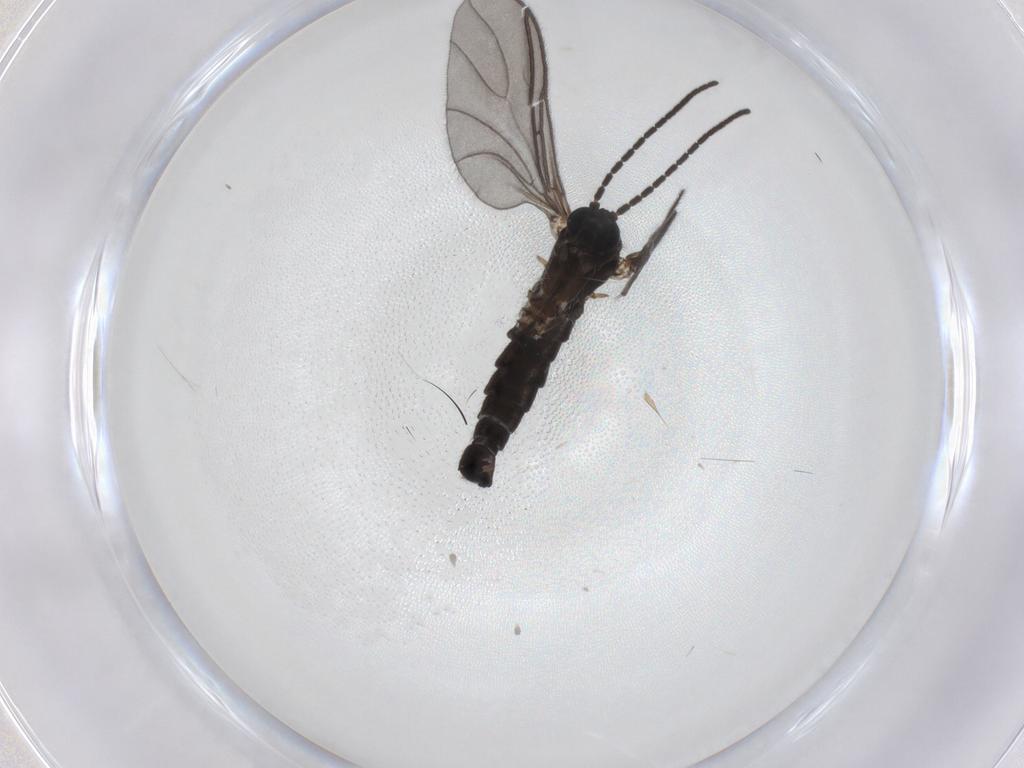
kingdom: Animalia
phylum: Arthropoda
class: Insecta
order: Diptera
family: Sciaridae
